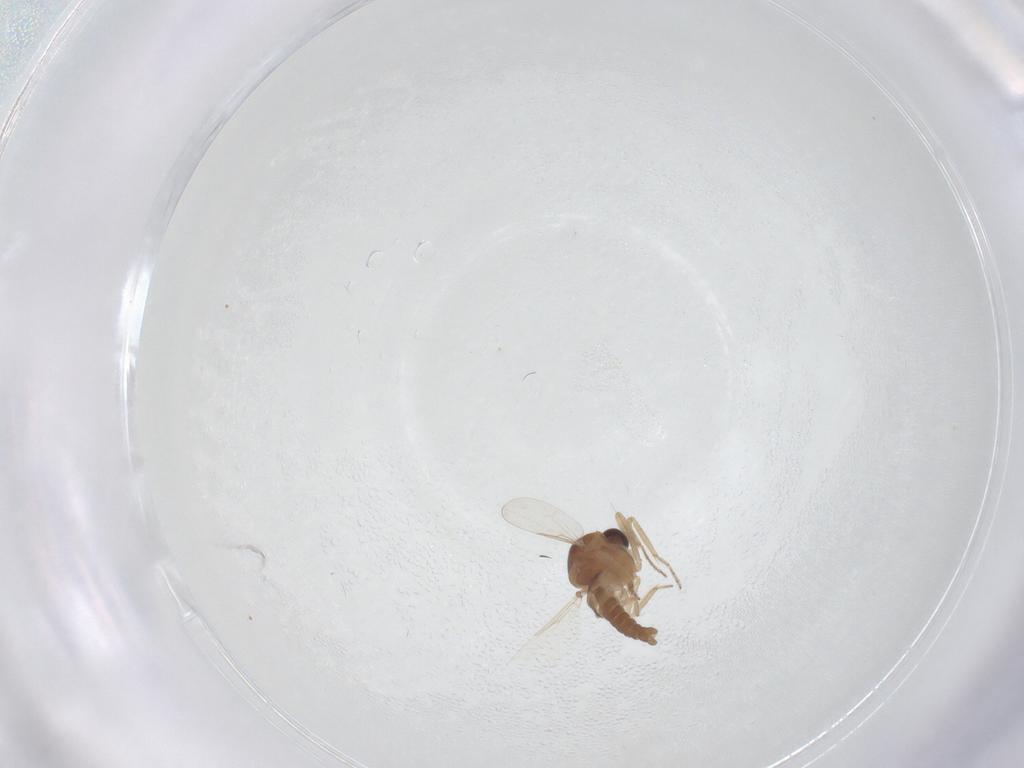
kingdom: Animalia
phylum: Arthropoda
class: Insecta
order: Diptera
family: Ceratopogonidae
